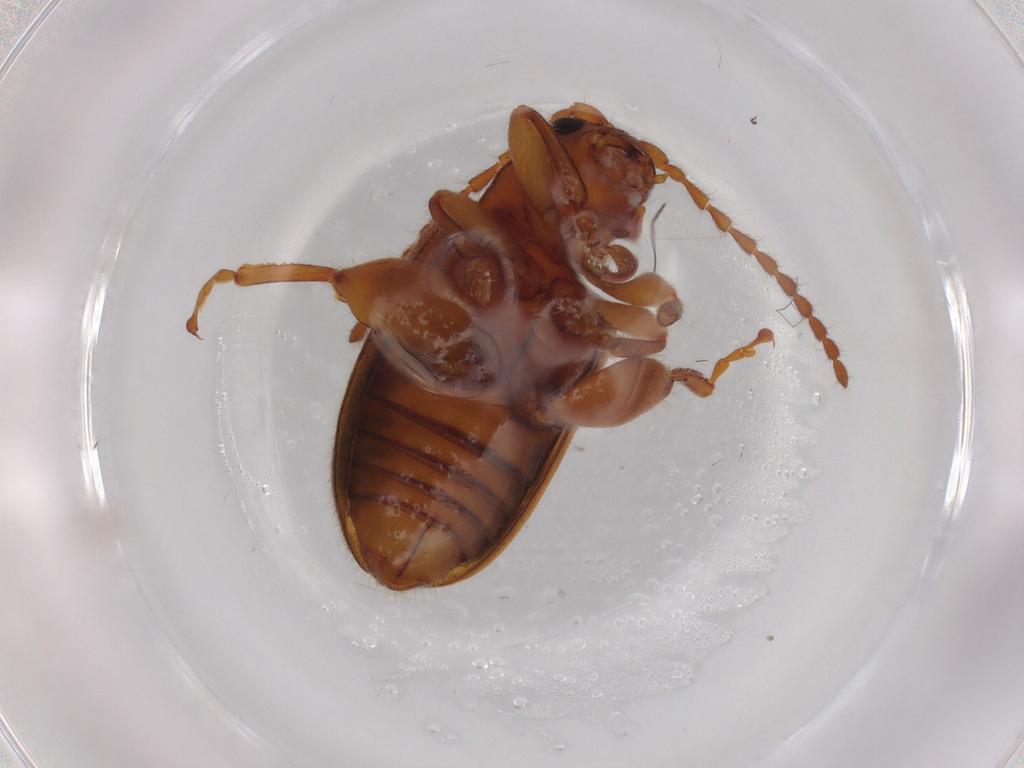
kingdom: Animalia
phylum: Arthropoda
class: Insecta
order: Coleoptera
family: Chrysomelidae
